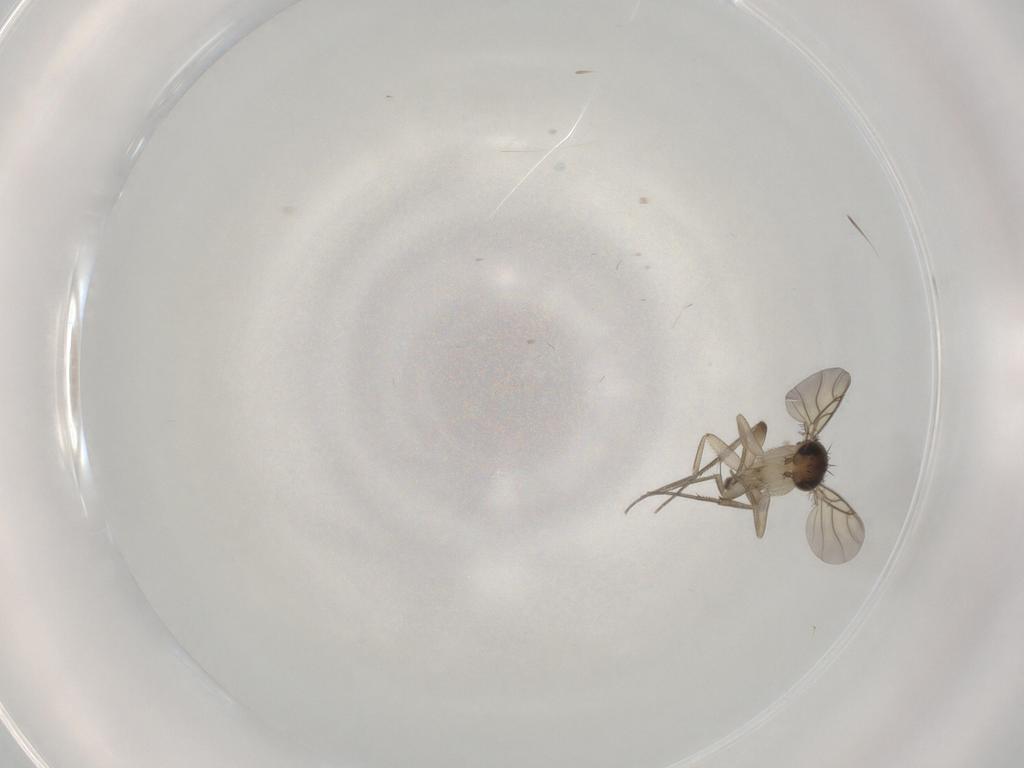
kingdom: Animalia
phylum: Arthropoda
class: Insecta
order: Diptera
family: Phoridae
